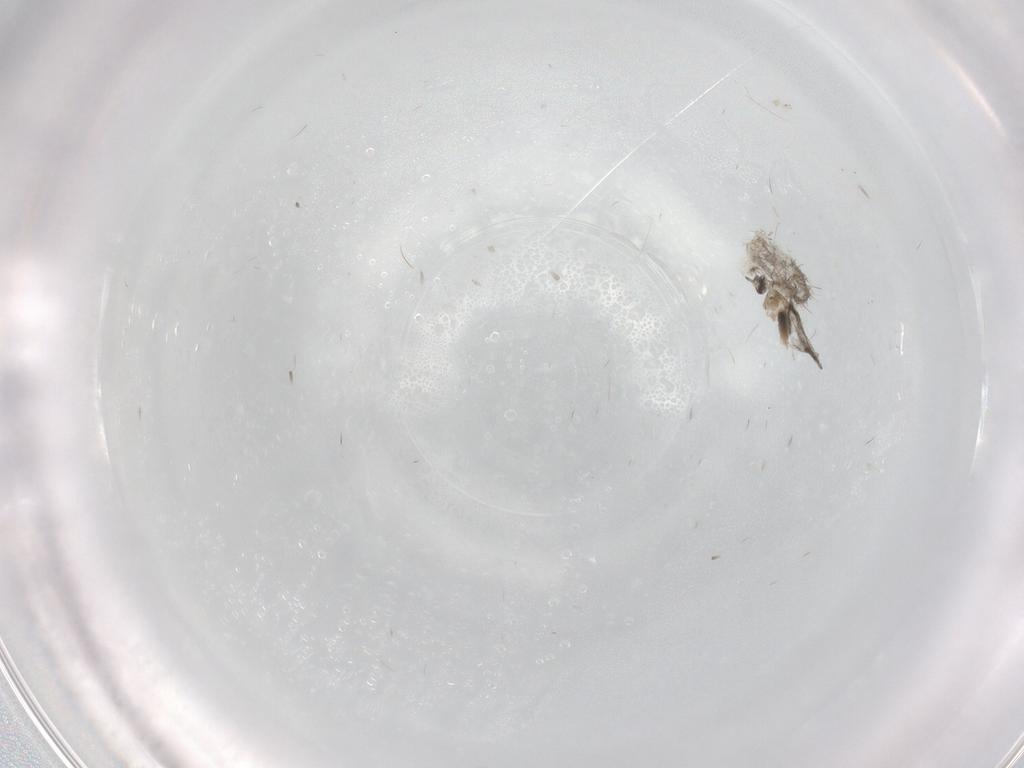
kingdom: Animalia
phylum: Arthropoda
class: Insecta
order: Diptera
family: Phoridae
